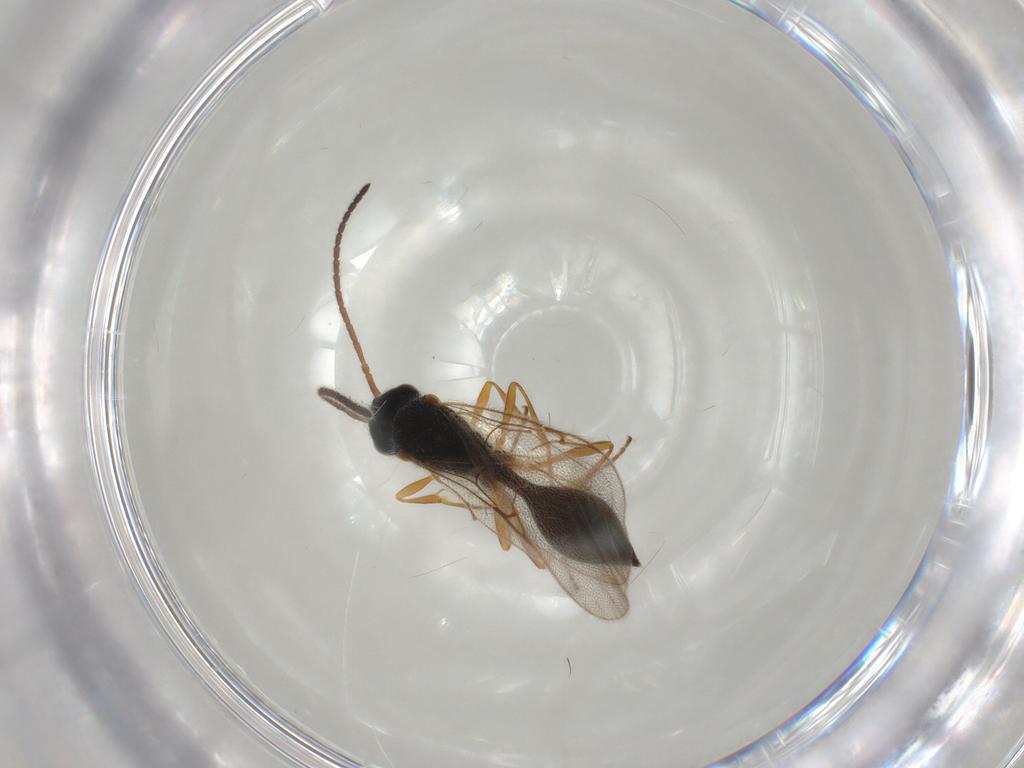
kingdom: Animalia
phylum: Arthropoda
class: Insecta
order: Hymenoptera
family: Diapriidae
